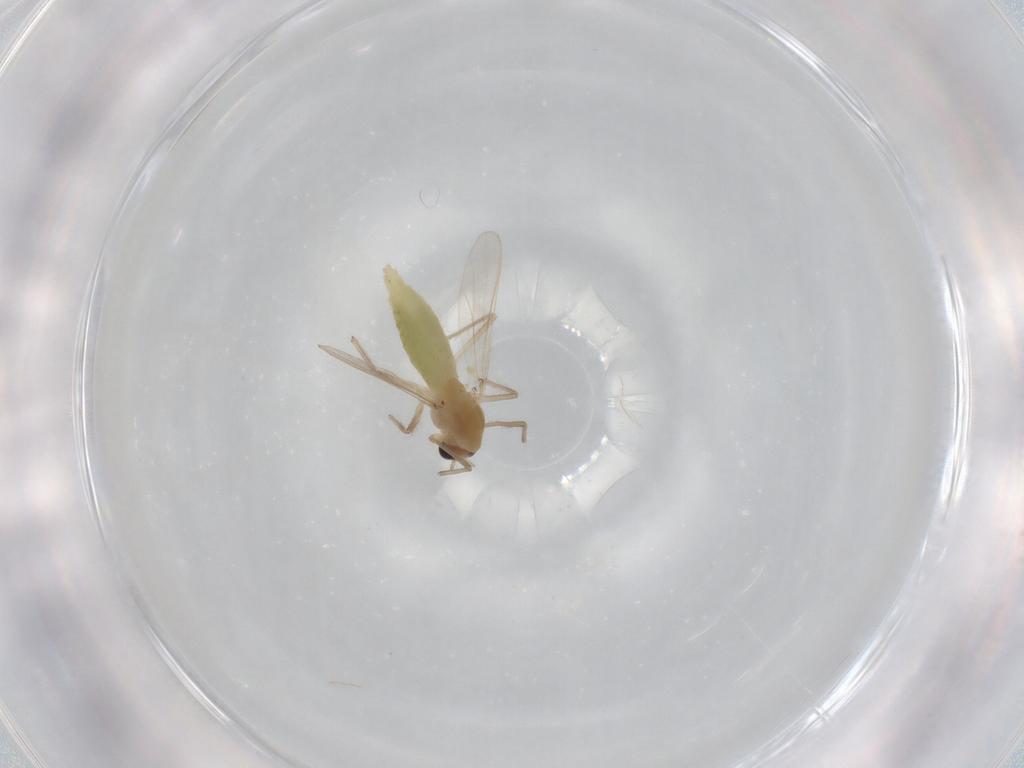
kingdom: Animalia
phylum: Arthropoda
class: Insecta
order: Diptera
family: Chironomidae
